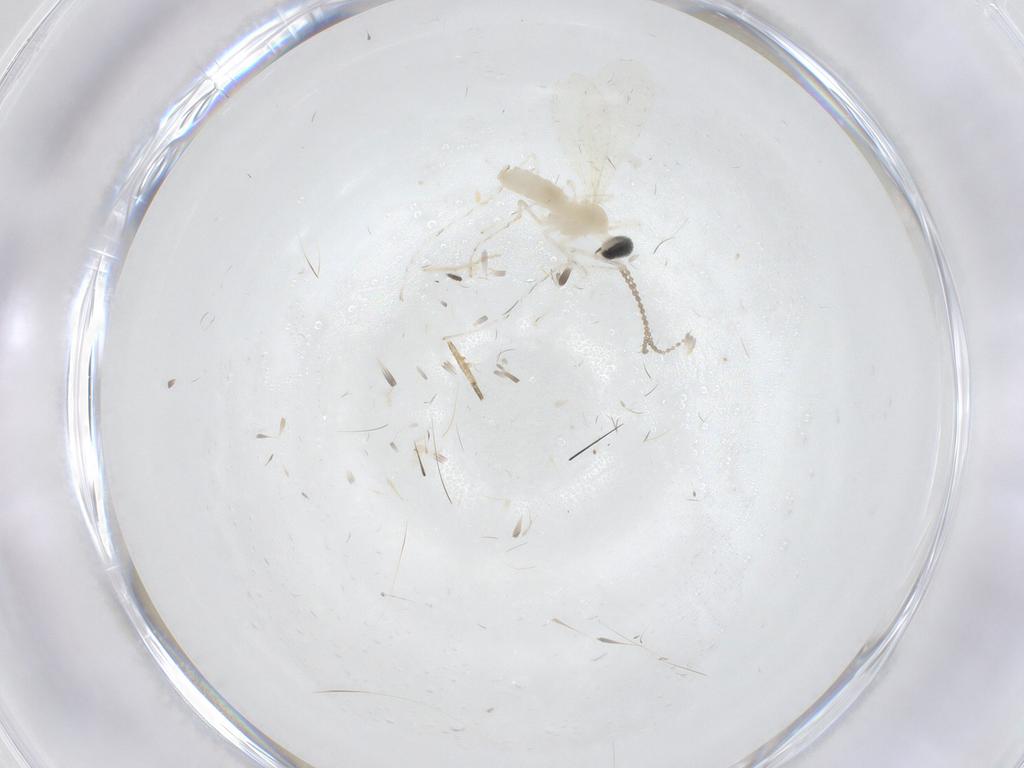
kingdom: Animalia
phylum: Arthropoda
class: Insecta
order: Diptera
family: Cecidomyiidae
